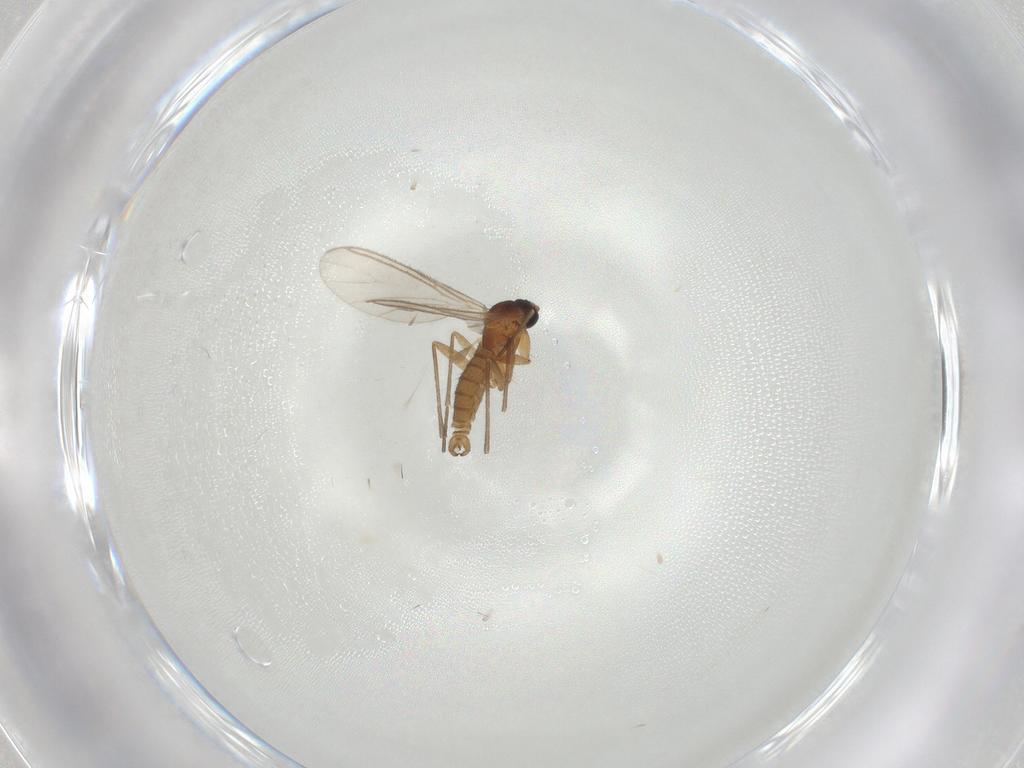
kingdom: Animalia
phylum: Arthropoda
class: Insecta
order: Diptera
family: Sciaridae
